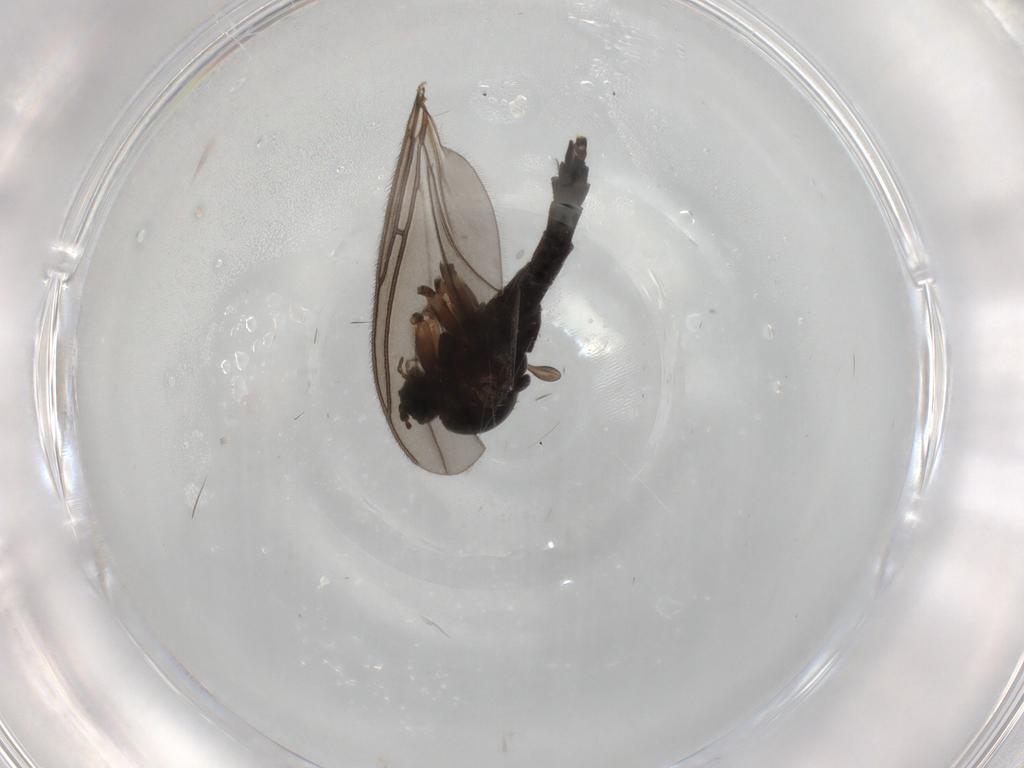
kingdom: Animalia
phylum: Arthropoda
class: Insecta
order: Diptera
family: Sciaridae
